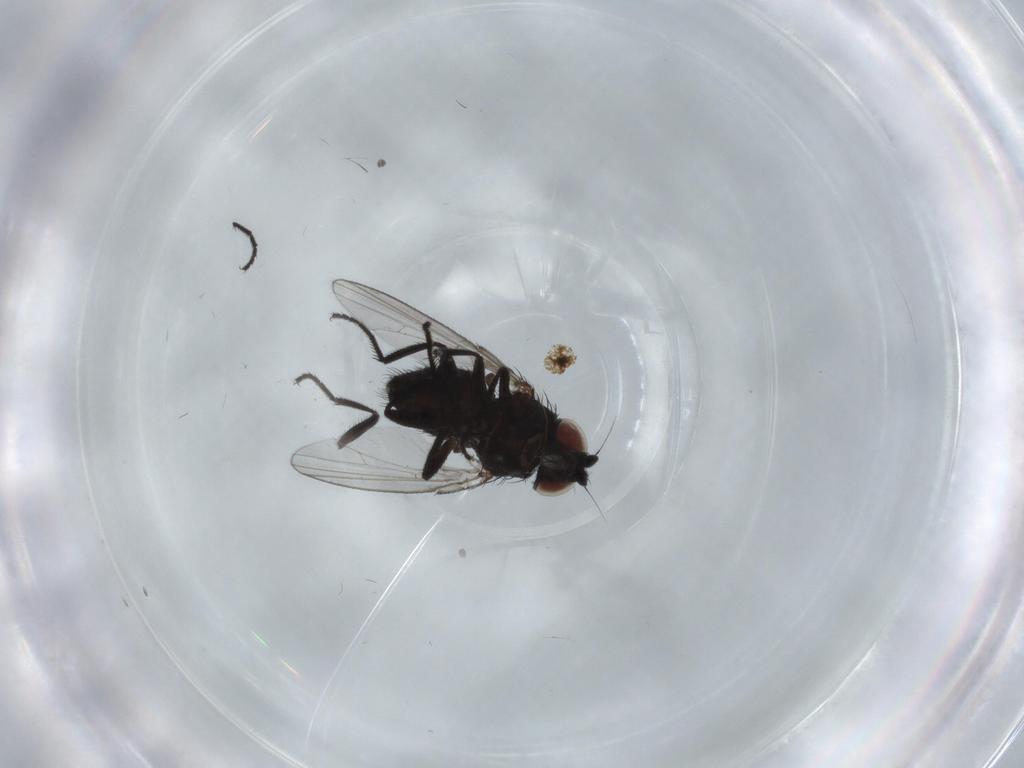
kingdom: Animalia
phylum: Arthropoda
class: Insecta
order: Diptera
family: Milichiidae
